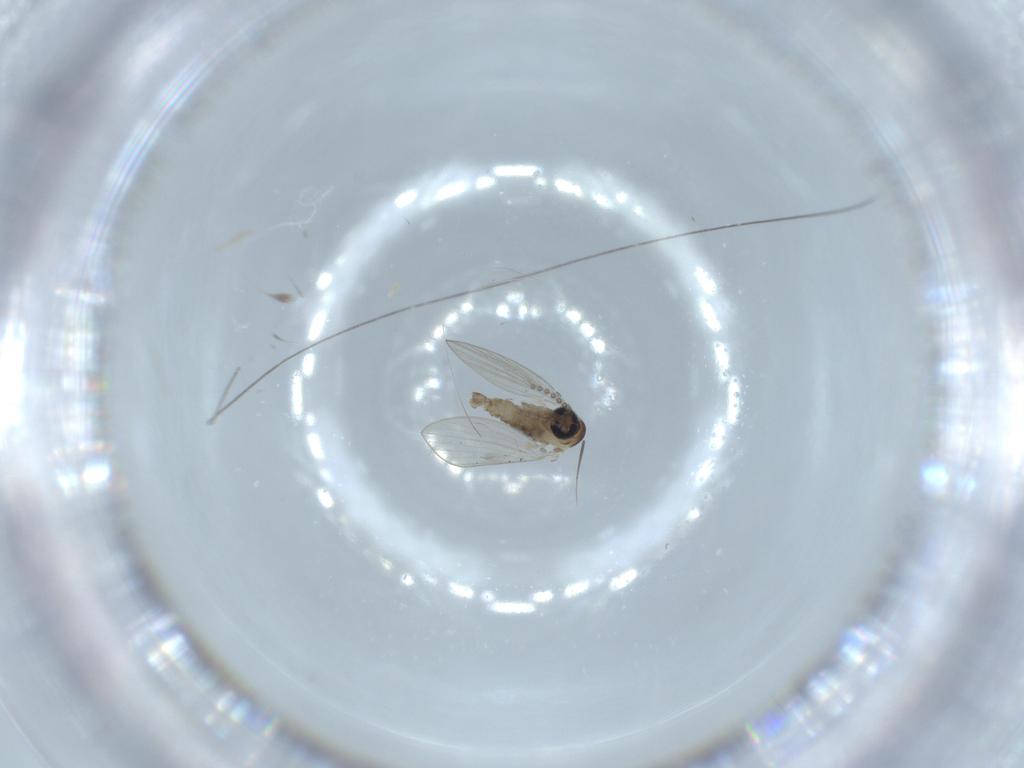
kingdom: Animalia
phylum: Arthropoda
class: Insecta
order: Diptera
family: Psychodidae
